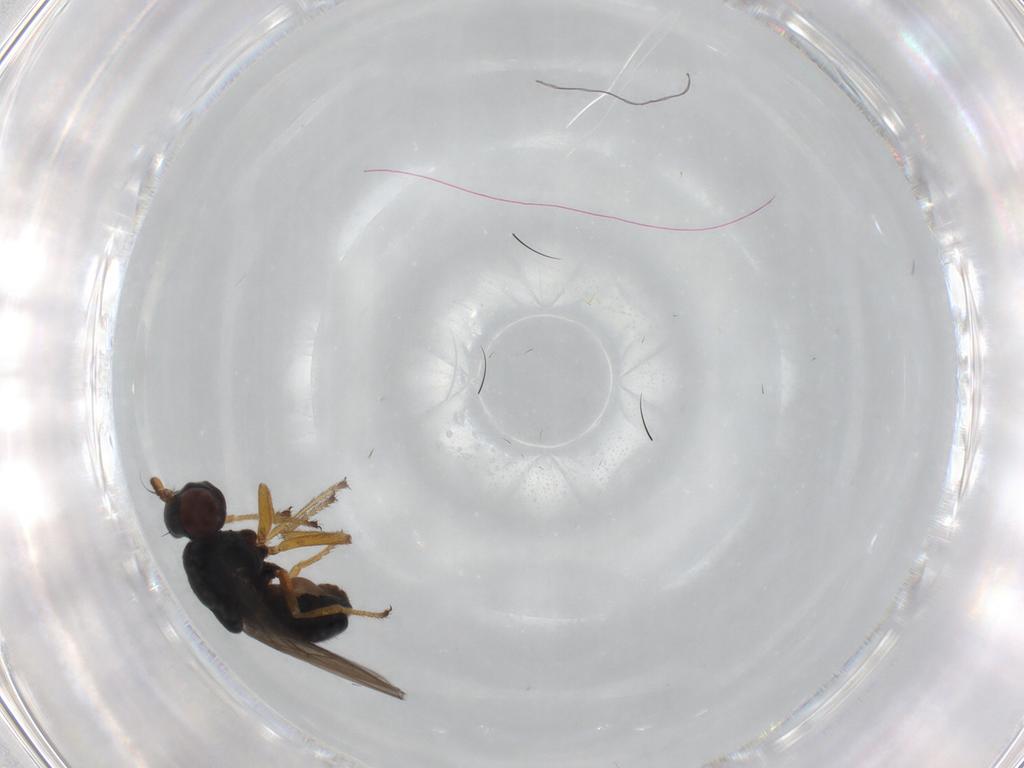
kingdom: Animalia
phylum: Arthropoda
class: Insecta
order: Diptera
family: Ephydridae
